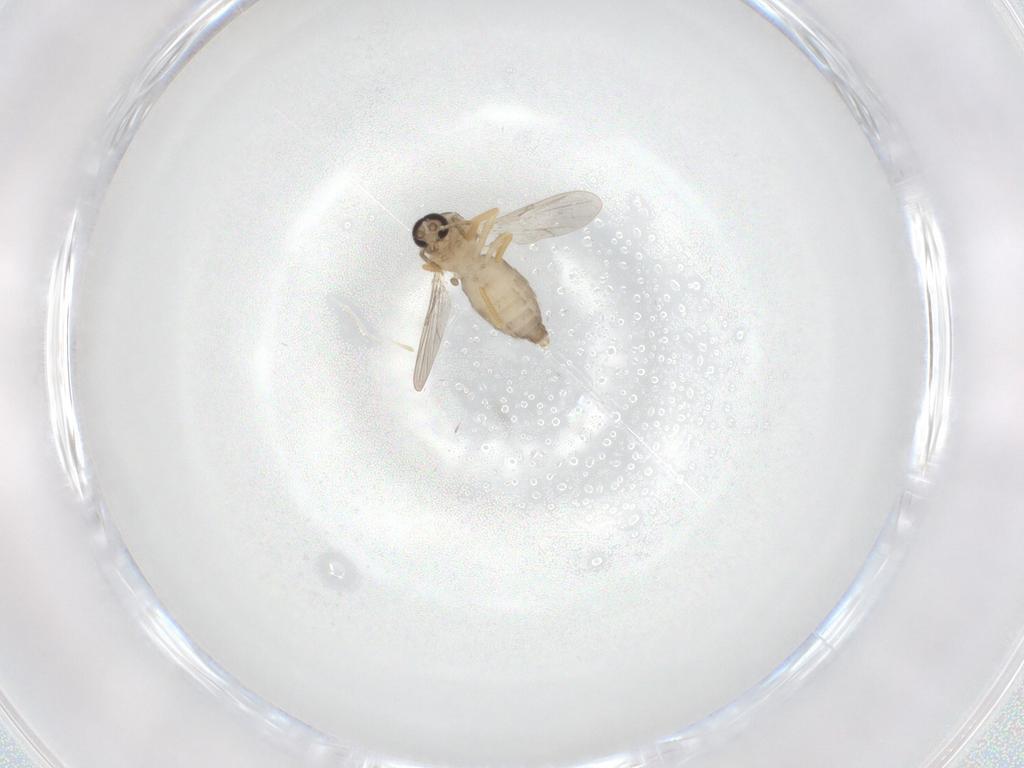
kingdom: Animalia
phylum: Arthropoda
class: Insecta
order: Diptera
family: Ceratopogonidae
